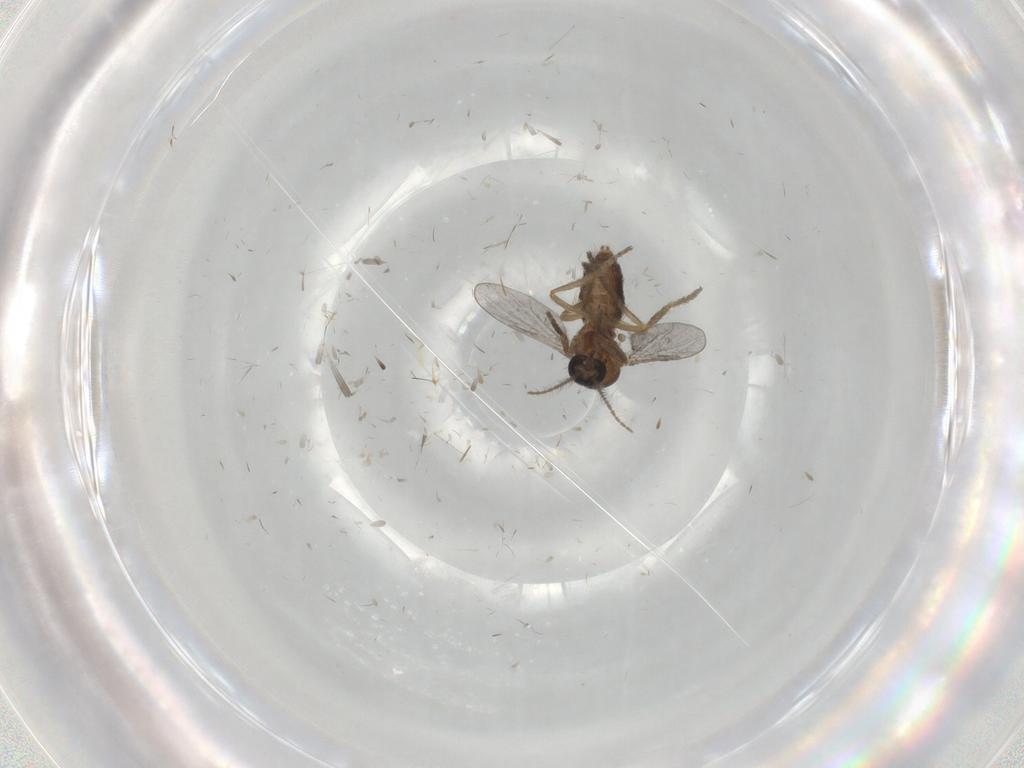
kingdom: Animalia
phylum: Arthropoda
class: Insecta
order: Diptera
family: Ceratopogonidae
